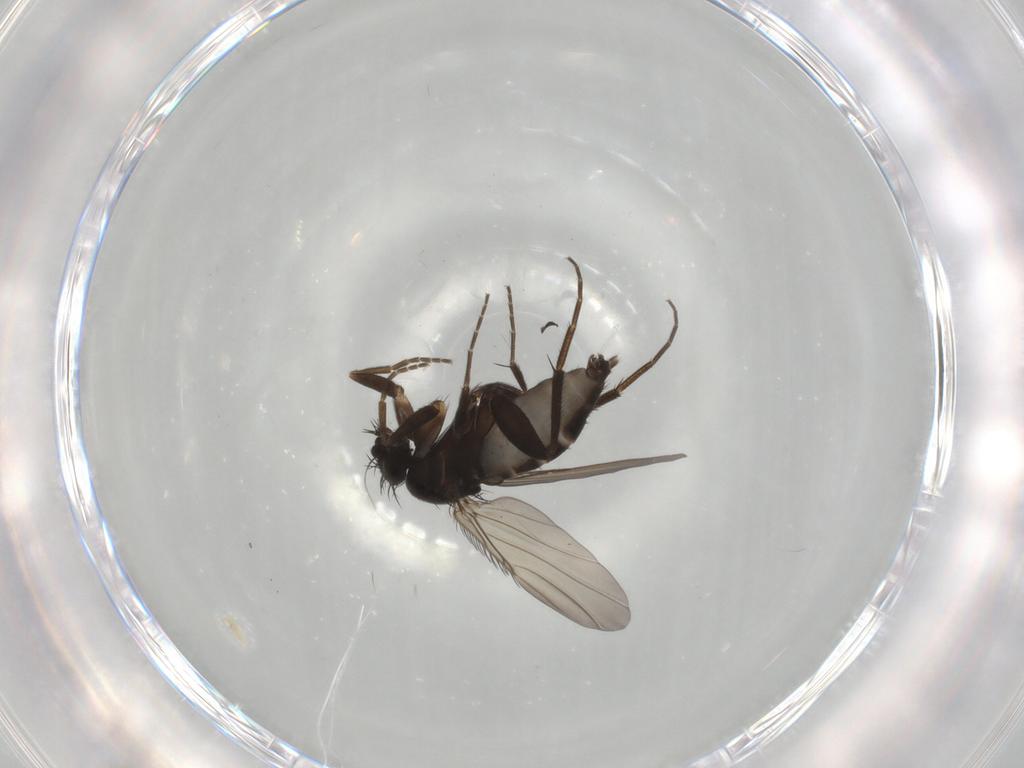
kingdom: Animalia
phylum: Arthropoda
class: Insecta
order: Diptera
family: Phoridae
